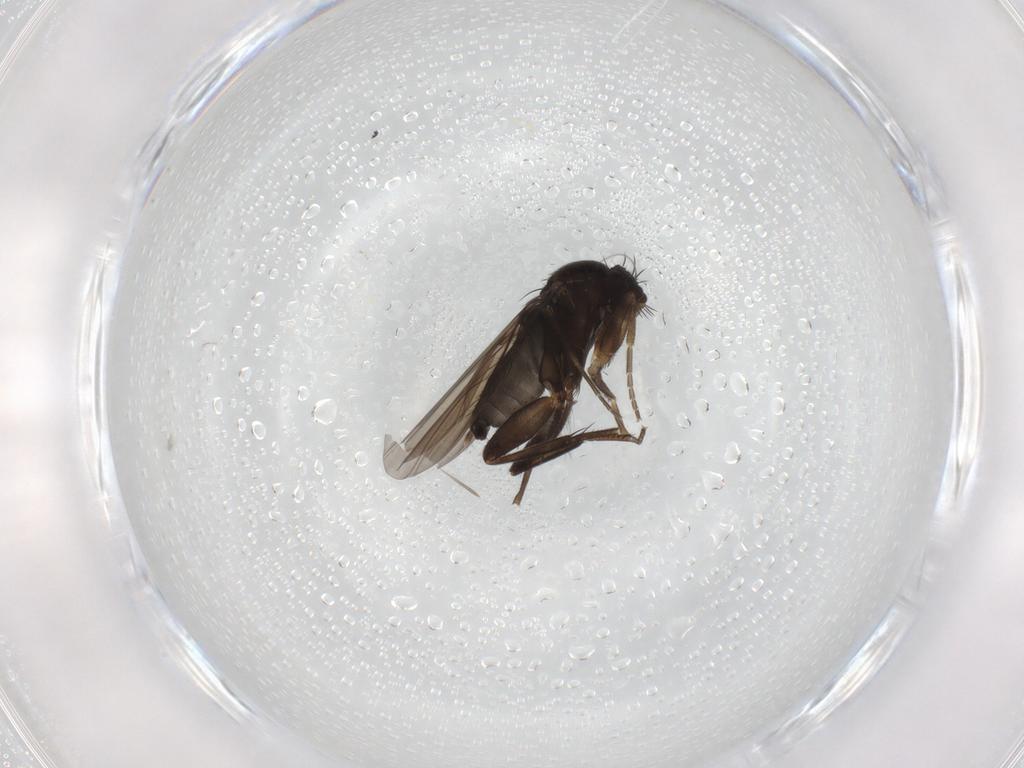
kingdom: Animalia
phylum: Arthropoda
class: Insecta
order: Diptera
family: Phoridae
